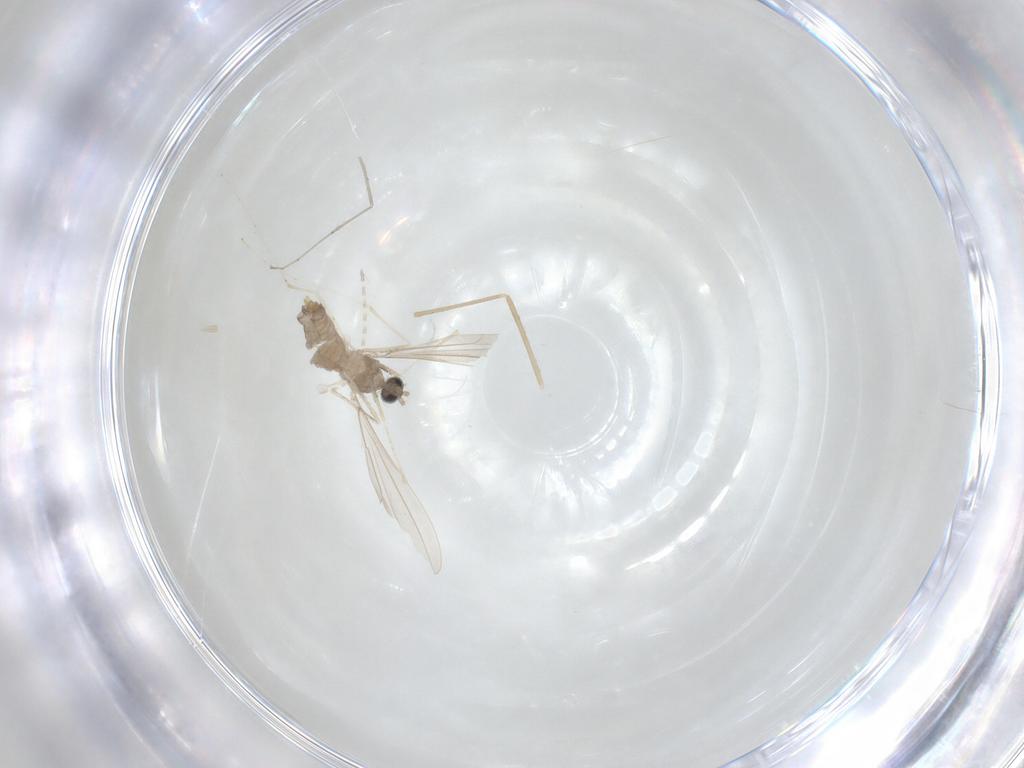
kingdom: Animalia
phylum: Arthropoda
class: Insecta
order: Diptera
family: Cecidomyiidae
